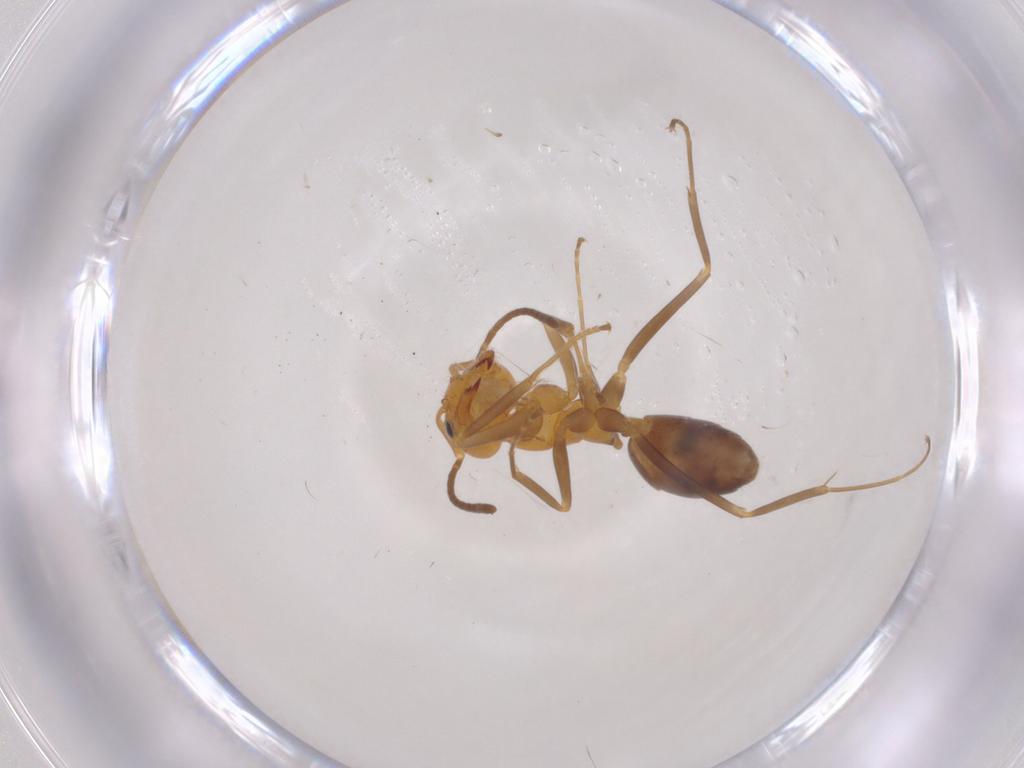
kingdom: Animalia
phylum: Arthropoda
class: Insecta
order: Hymenoptera
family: Formicidae
